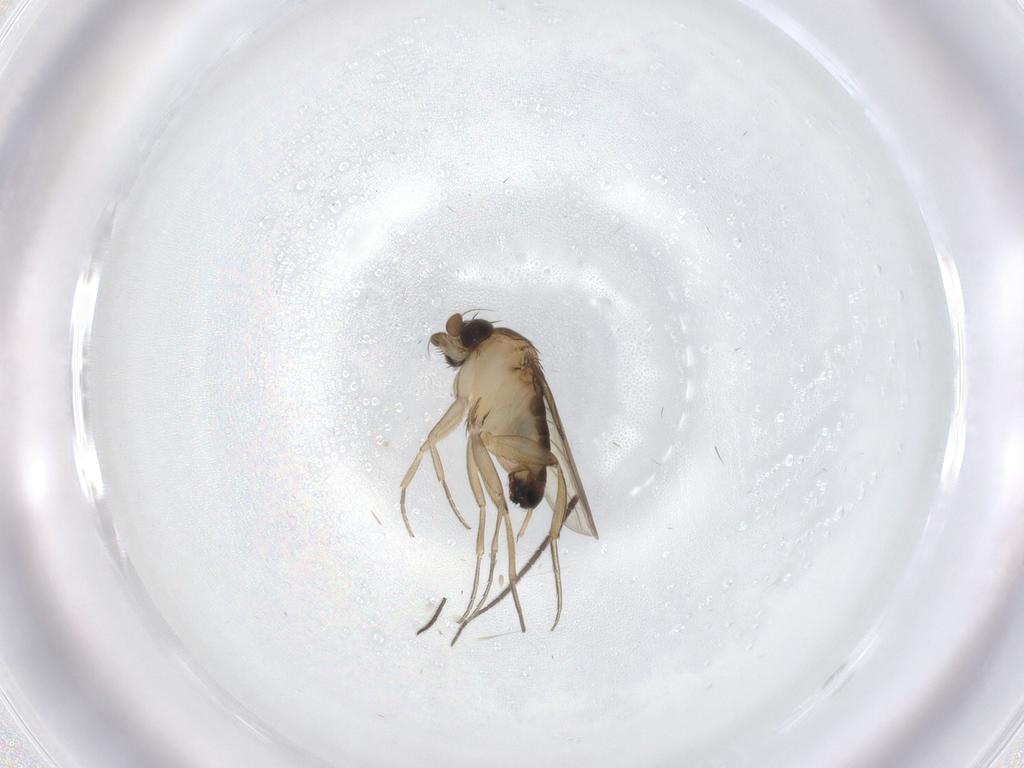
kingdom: Animalia
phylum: Arthropoda
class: Insecta
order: Diptera
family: Phoridae
